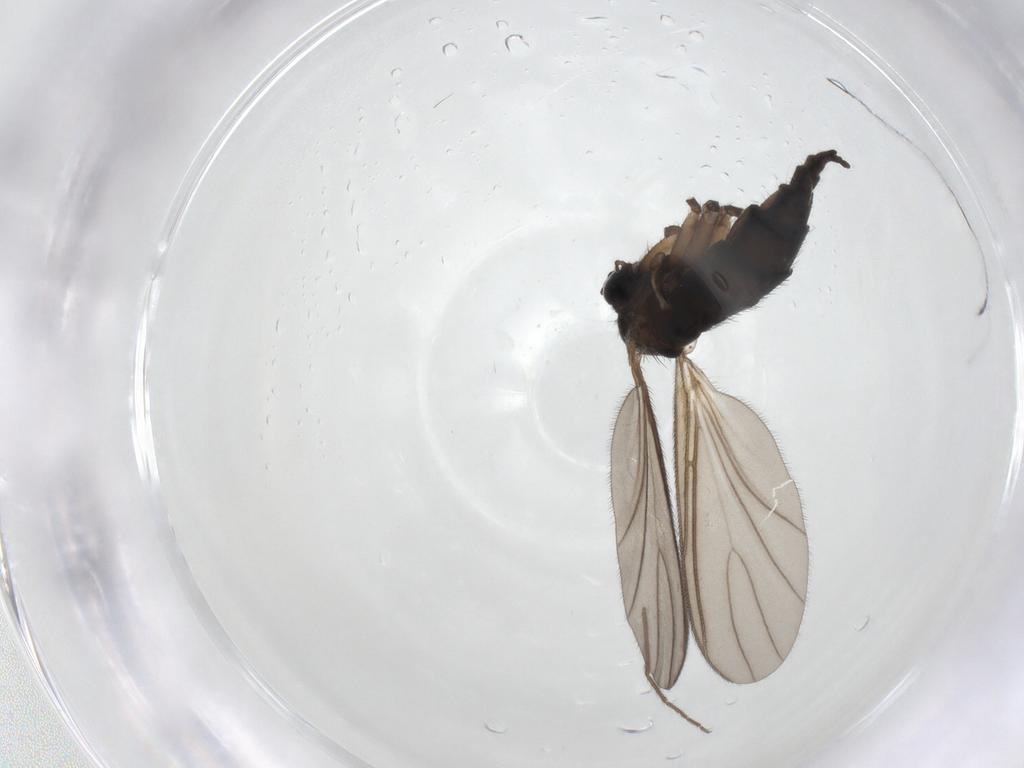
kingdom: Animalia
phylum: Arthropoda
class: Insecta
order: Diptera
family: Sciaridae
